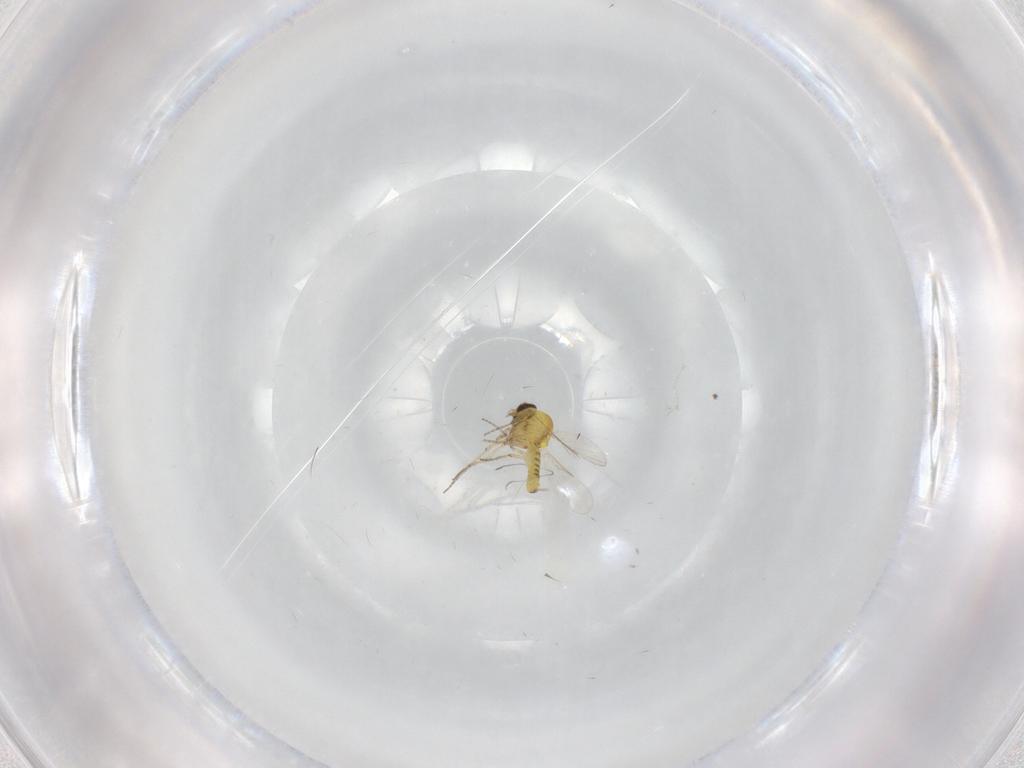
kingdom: Animalia
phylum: Arthropoda
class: Insecta
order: Diptera
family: Ceratopogonidae
